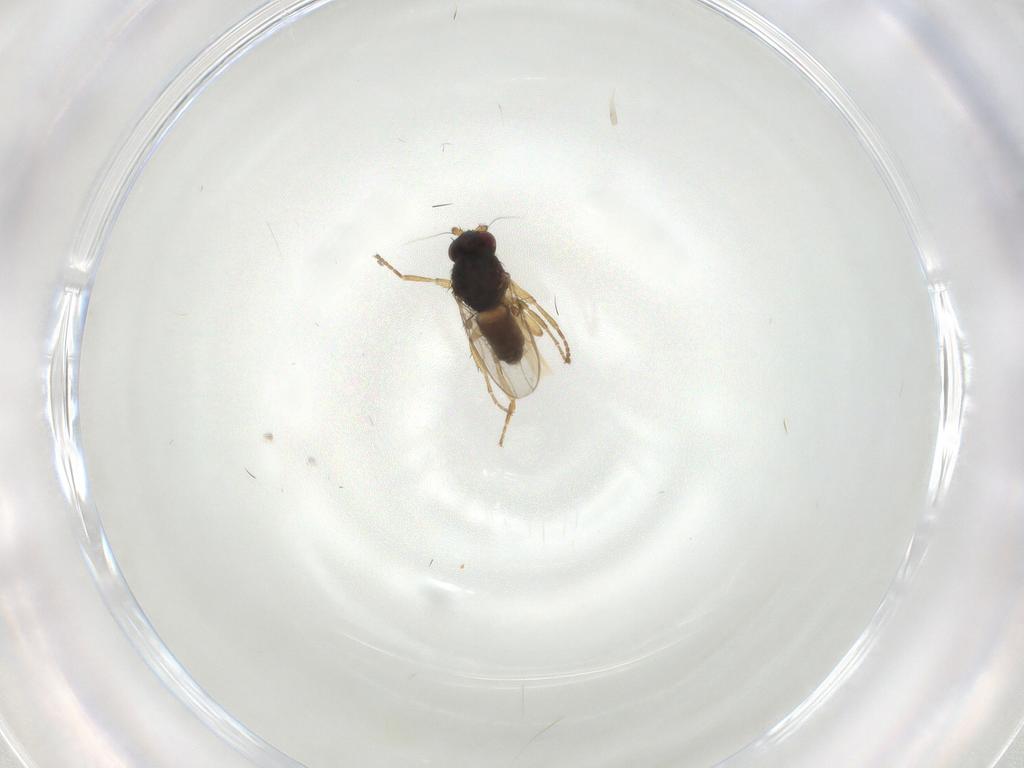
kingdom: Animalia
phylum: Arthropoda
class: Insecta
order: Diptera
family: Sphaeroceridae
